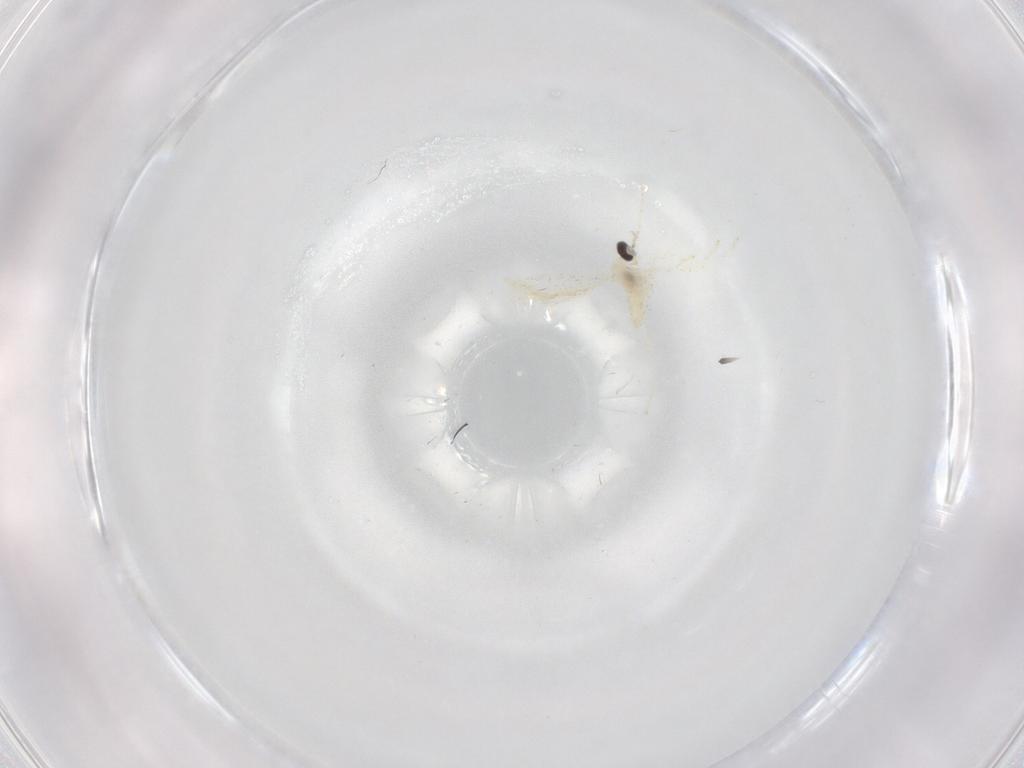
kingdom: Animalia
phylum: Arthropoda
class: Insecta
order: Diptera
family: Cecidomyiidae
